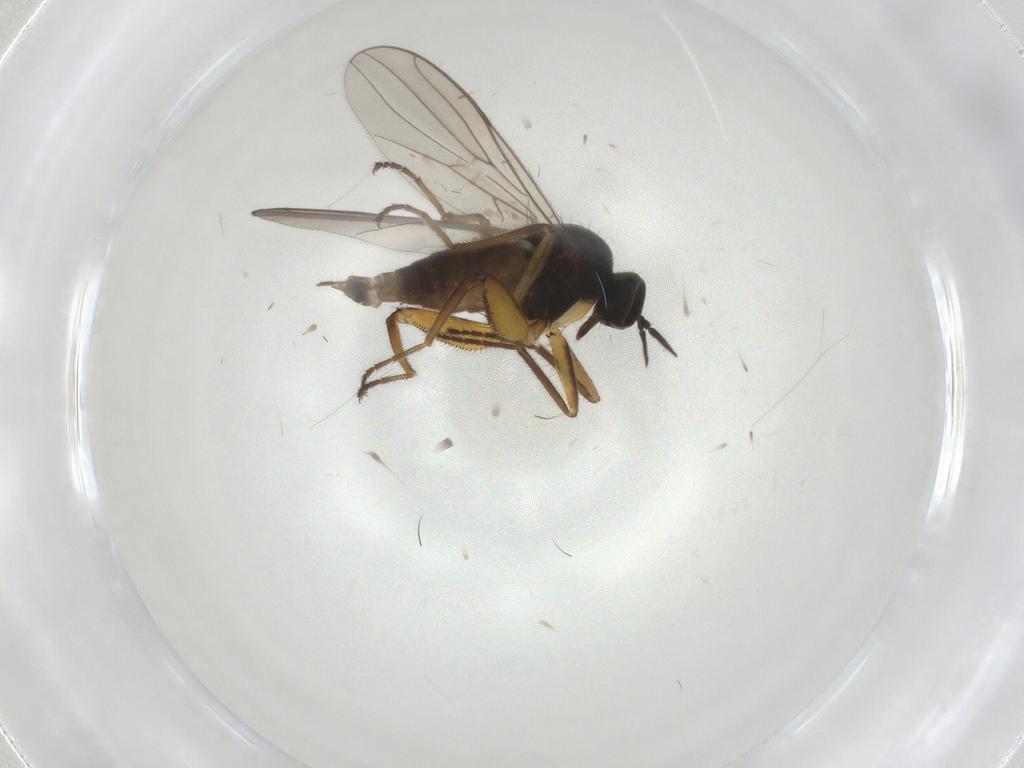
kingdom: Animalia
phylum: Arthropoda
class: Insecta
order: Diptera
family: Hybotidae
